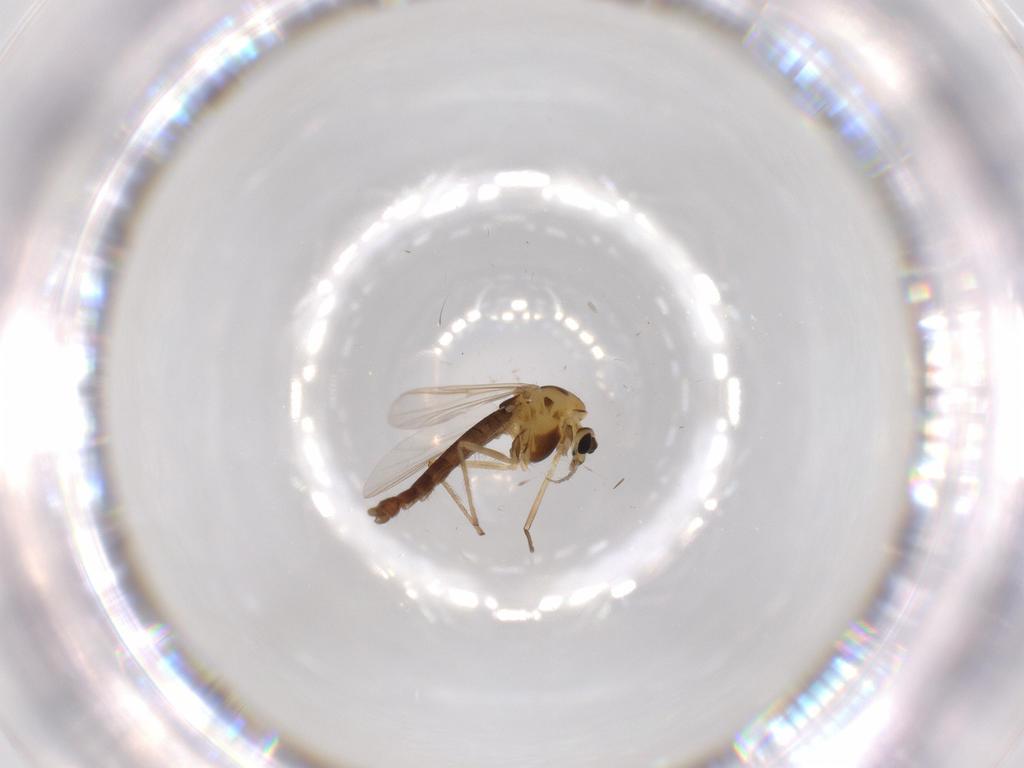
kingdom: Animalia
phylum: Arthropoda
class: Insecta
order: Diptera
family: Chironomidae
